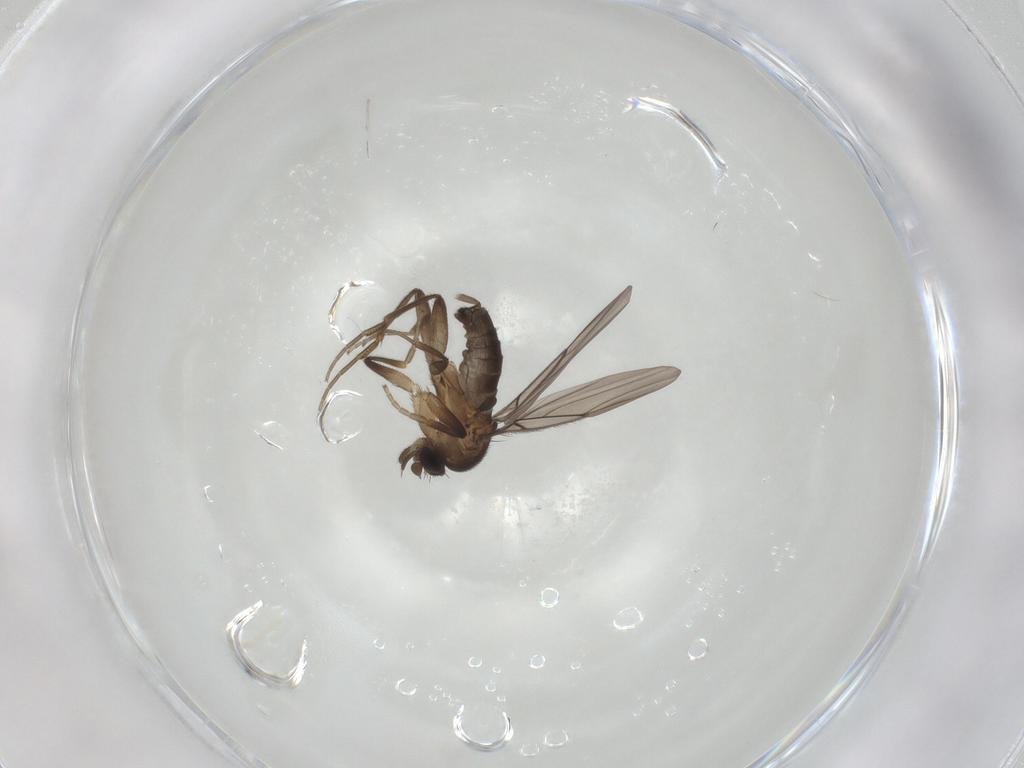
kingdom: Animalia
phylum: Arthropoda
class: Insecta
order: Diptera
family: Phoridae
